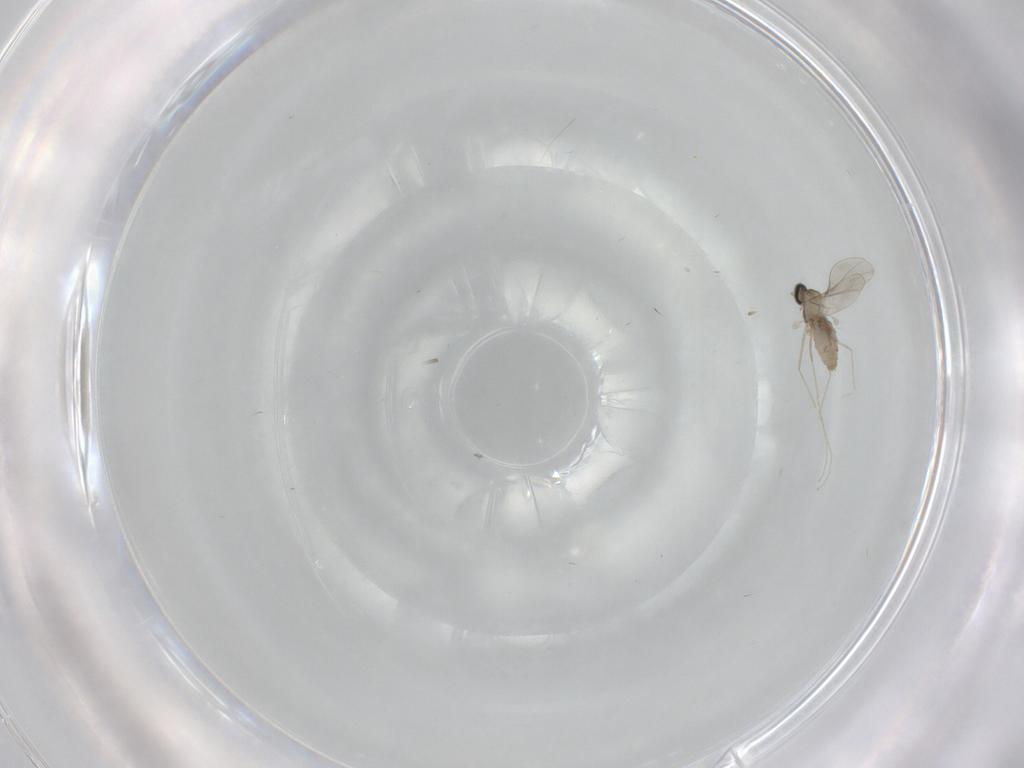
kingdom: Animalia
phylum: Arthropoda
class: Insecta
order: Diptera
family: Cecidomyiidae
